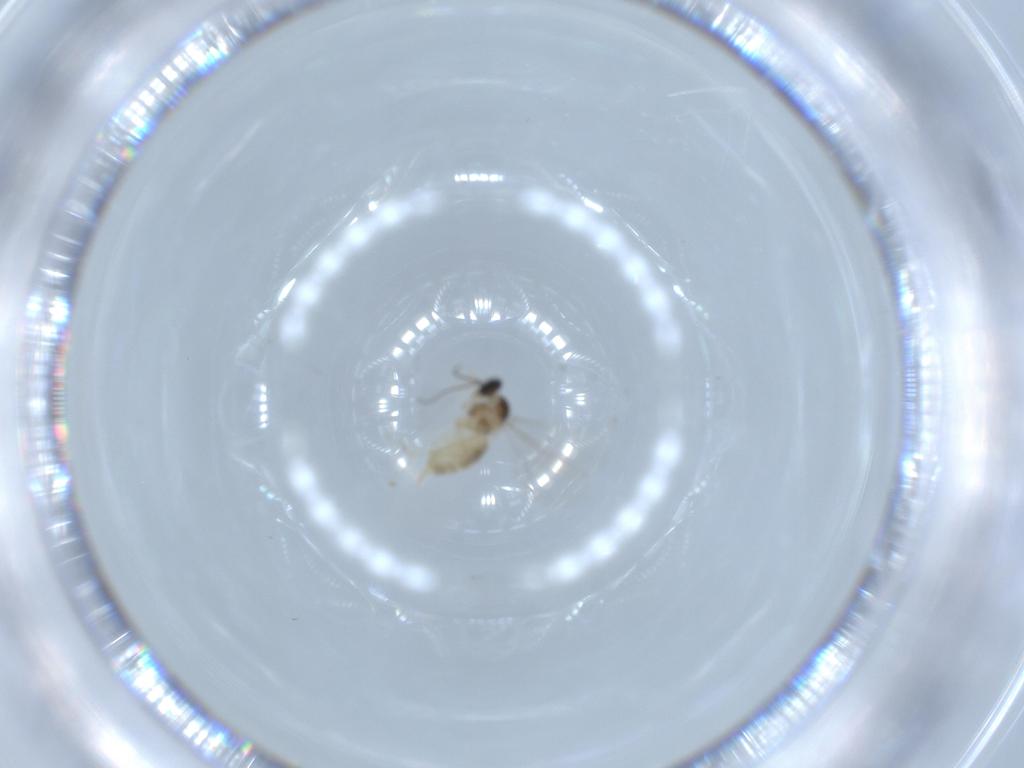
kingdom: Animalia
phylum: Arthropoda
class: Insecta
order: Diptera
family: Cecidomyiidae
